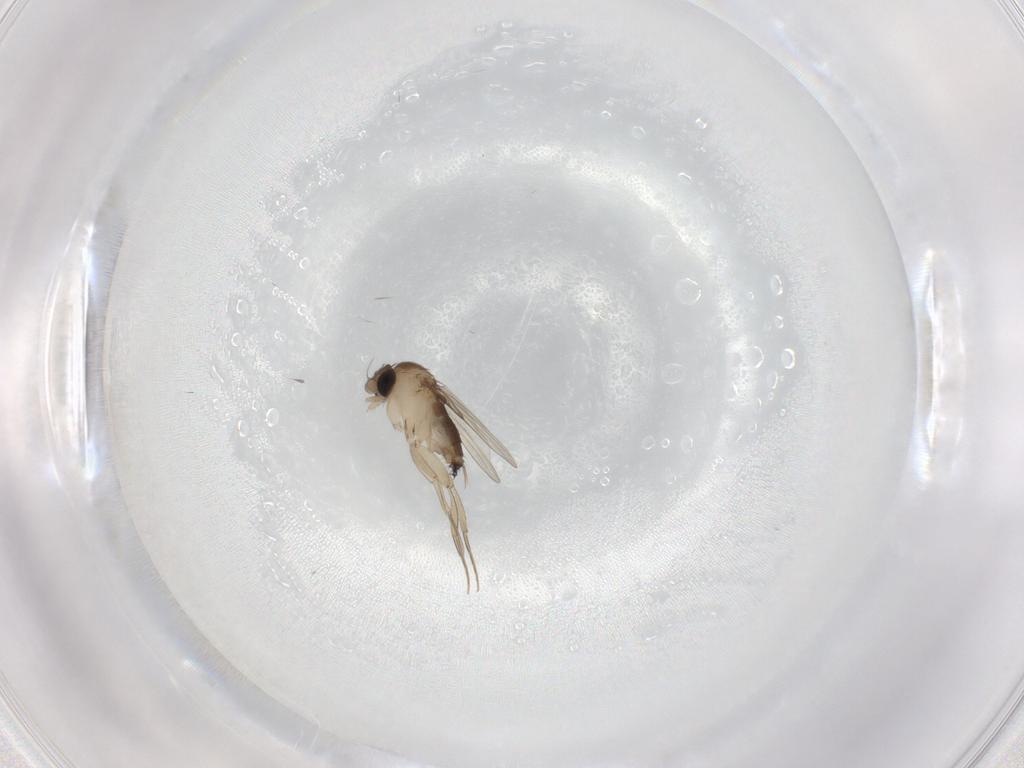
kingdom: Animalia
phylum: Arthropoda
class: Insecta
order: Diptera
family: Phoridae
